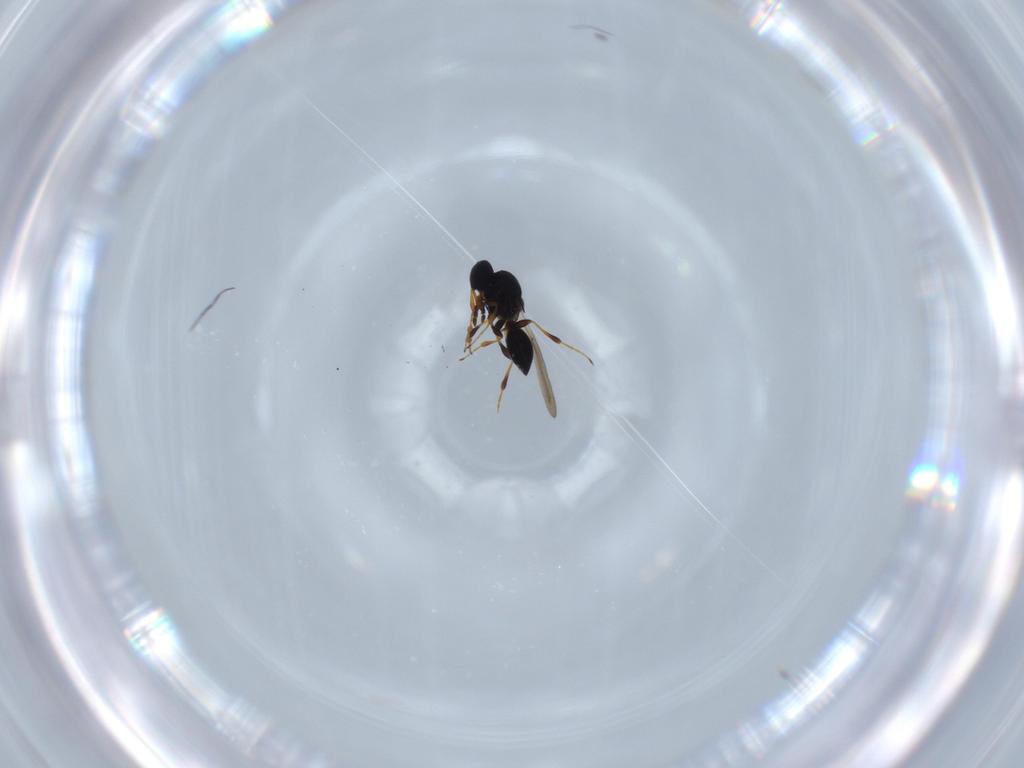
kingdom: Animalia
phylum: Arthropoda
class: Insecta
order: Hymenoptera
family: Platygastridae
